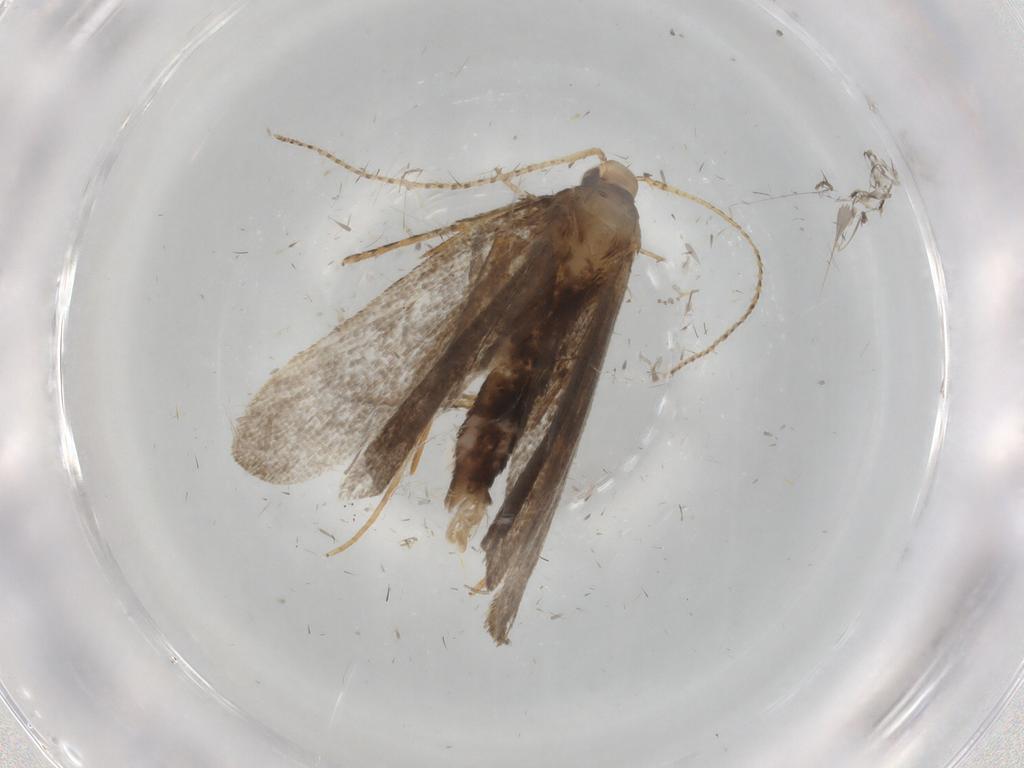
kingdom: Animalia
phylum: Arthropoda
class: Insecta
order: Lepidoptera
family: Gelechiidae
